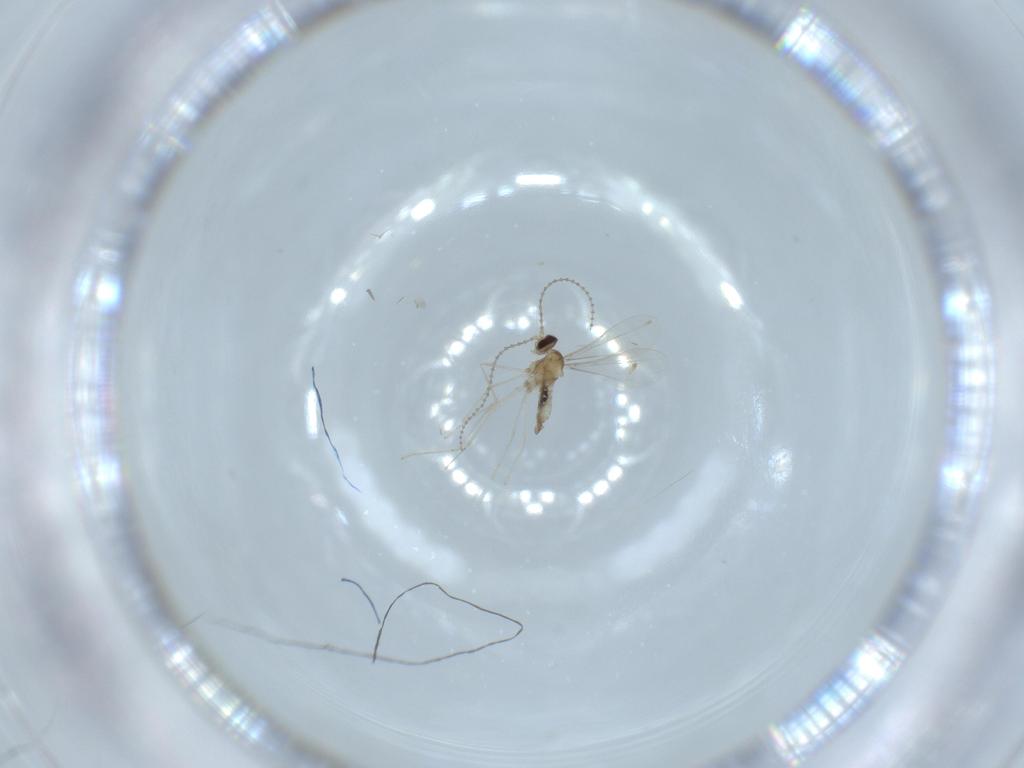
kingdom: Animalia
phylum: Arthropoda
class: Insecta
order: Diptera
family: Cecidomyiidae
